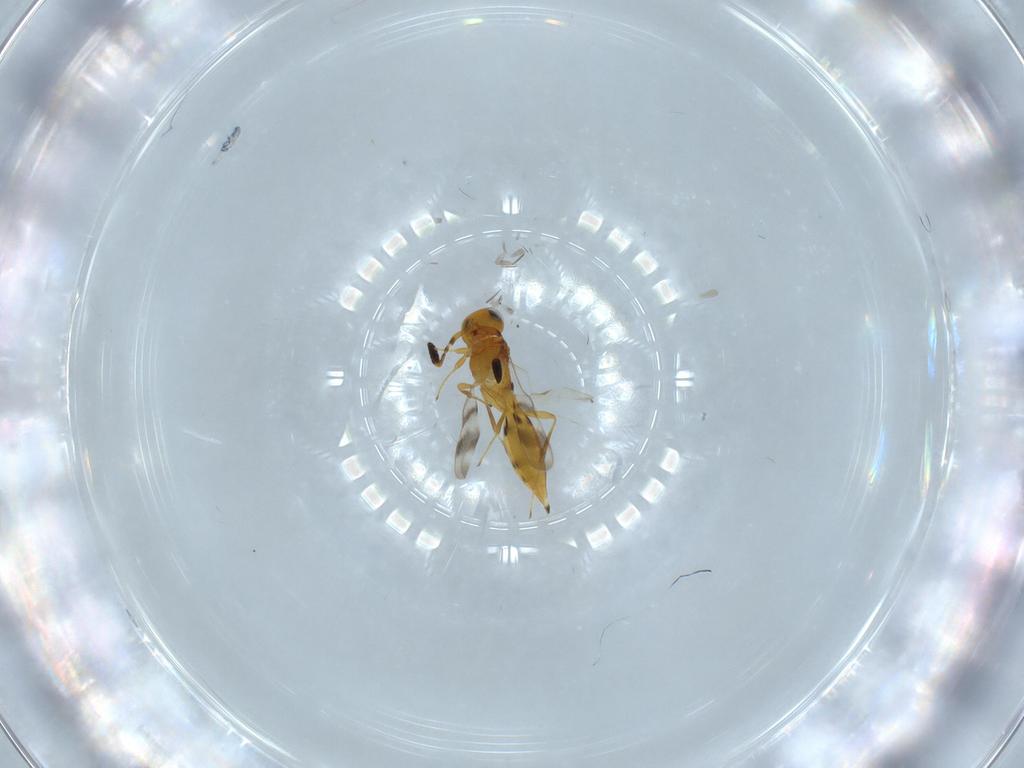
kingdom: Animalia
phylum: Arthropoda
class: Insecta
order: Hymenoptera
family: Scelionidae
